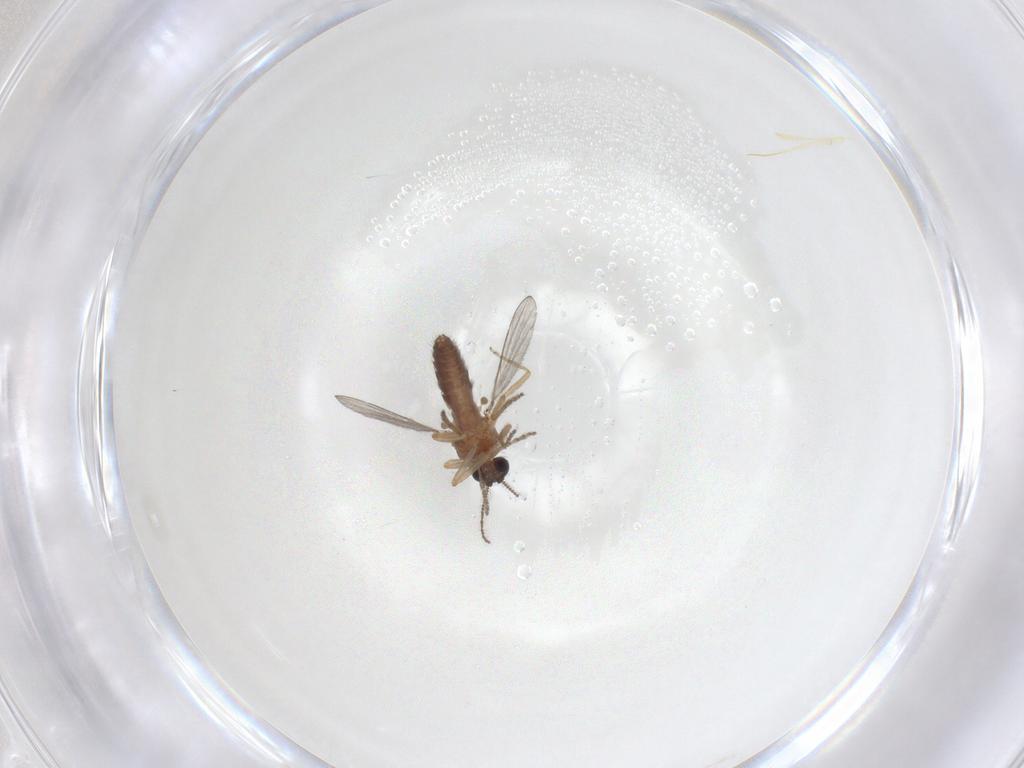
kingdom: Animalia
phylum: Arthropoda
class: Insecta
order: Diptera
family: Ceratopogonidae
